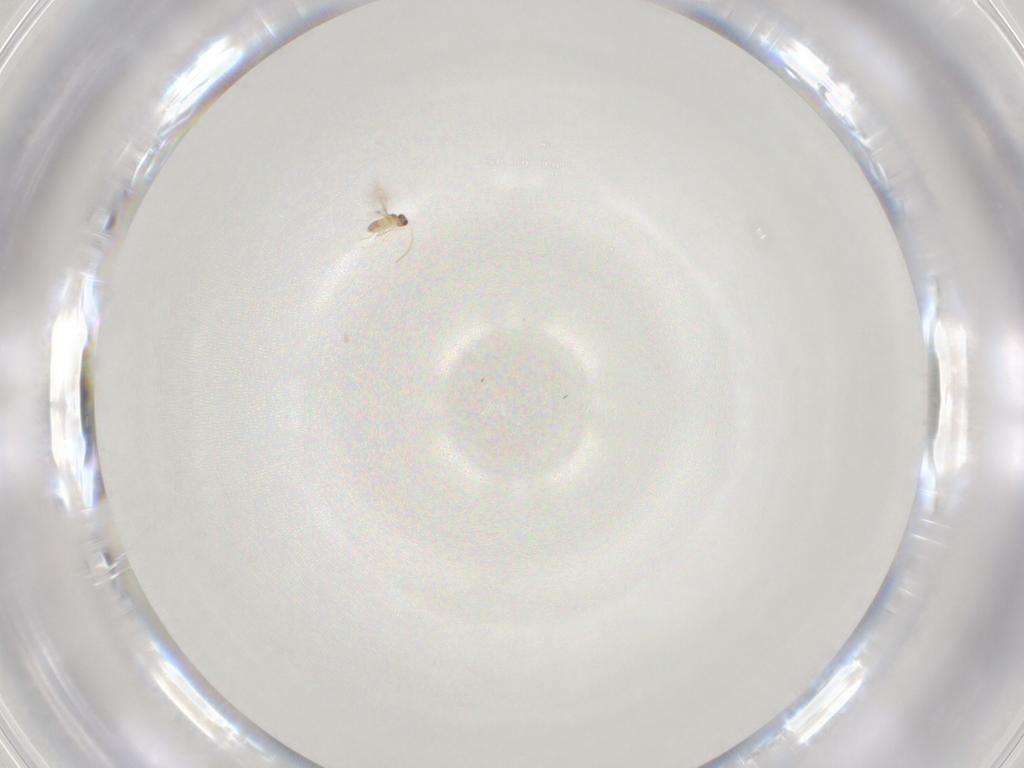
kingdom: Animalia
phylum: Arthropoda
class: Insecta
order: Hymenoptera
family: Mymaridae
